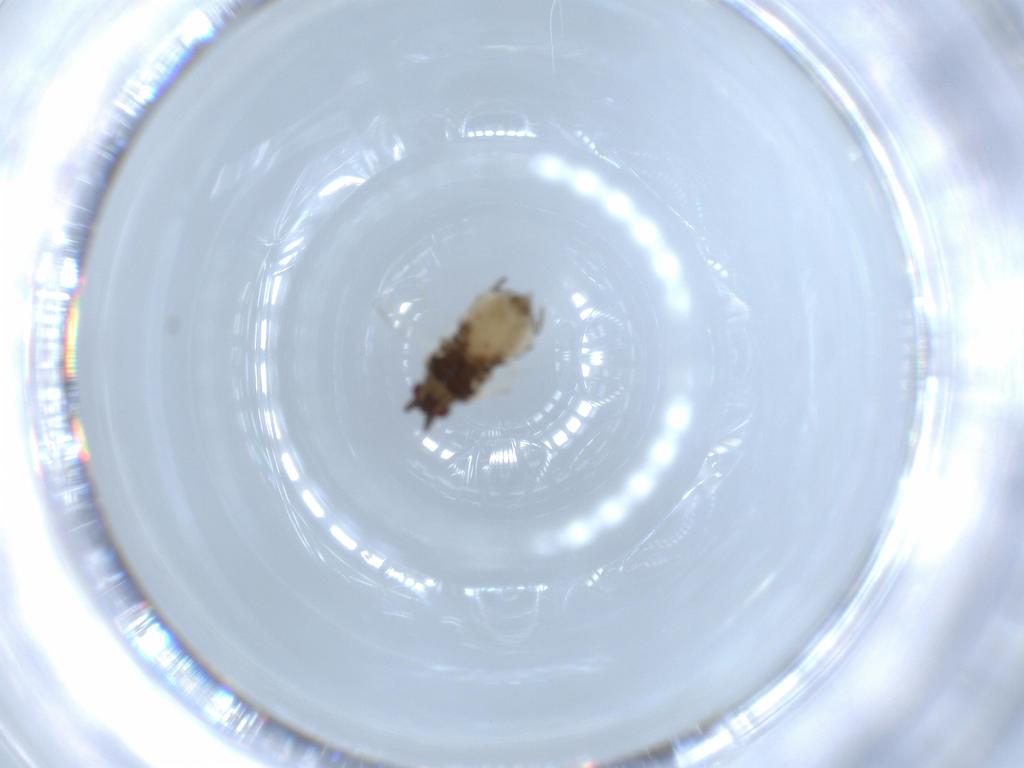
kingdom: Animalia
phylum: Arthropoda
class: Insecta
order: Hemiptera
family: Aphididae
